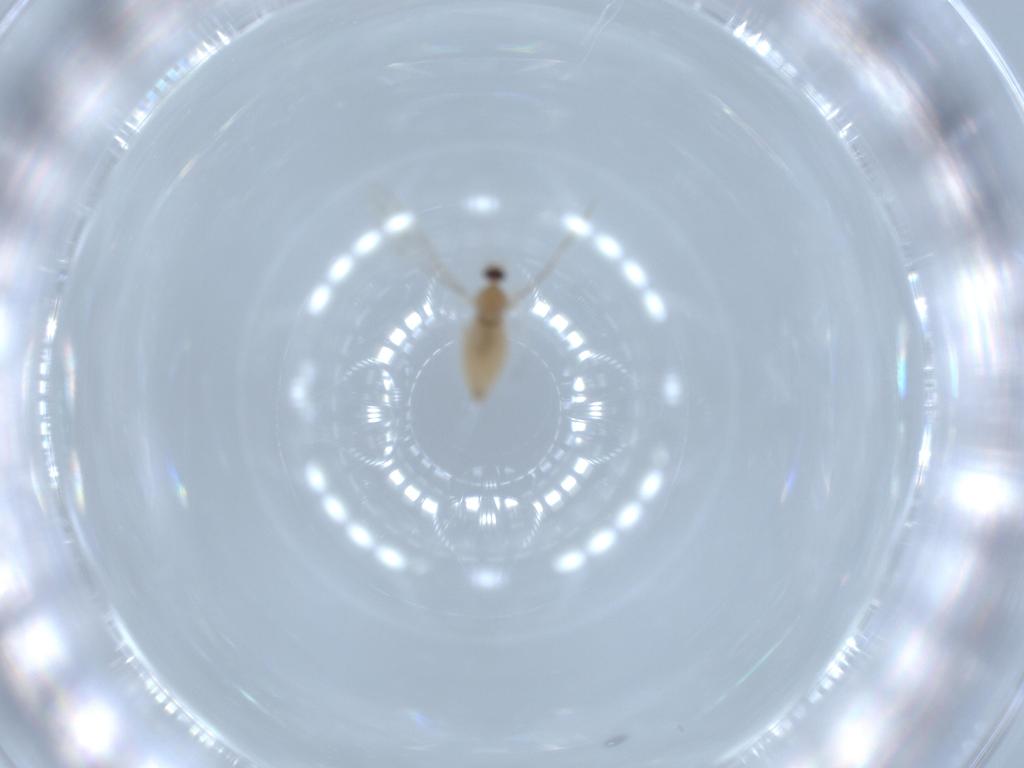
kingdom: Animalia
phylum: Arthropoda
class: Insecta
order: Diptera
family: Cecidomyiidae
